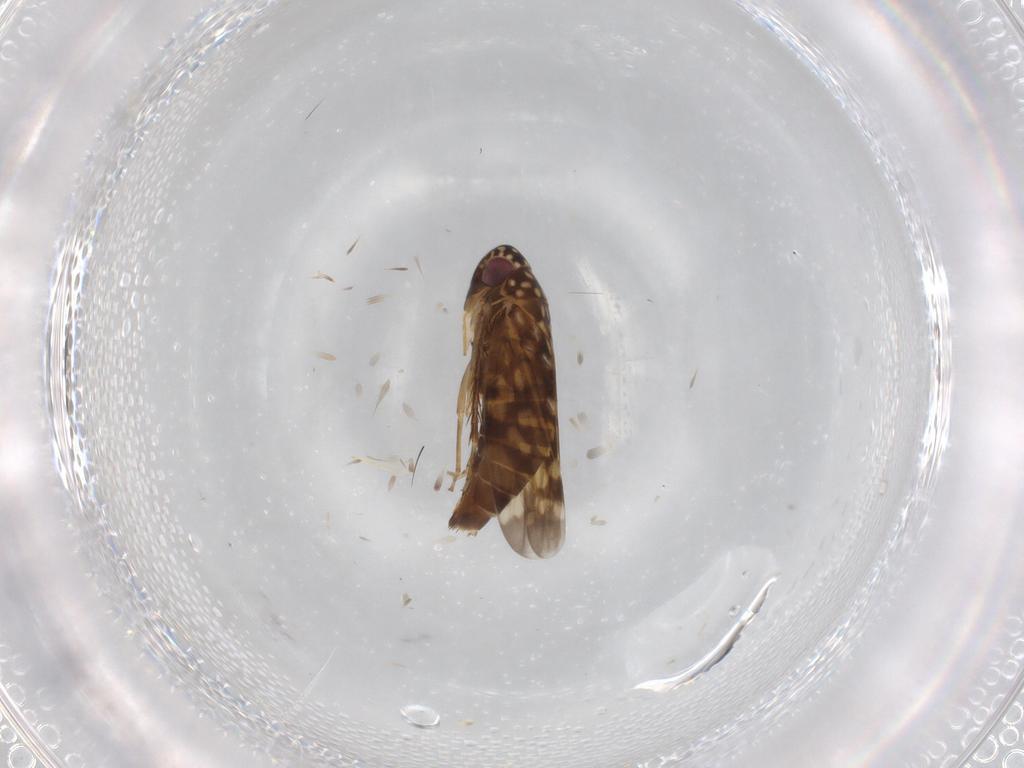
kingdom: Animalia
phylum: Arthropoda
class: Insecta
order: Hemiptera
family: Cicadellidae
